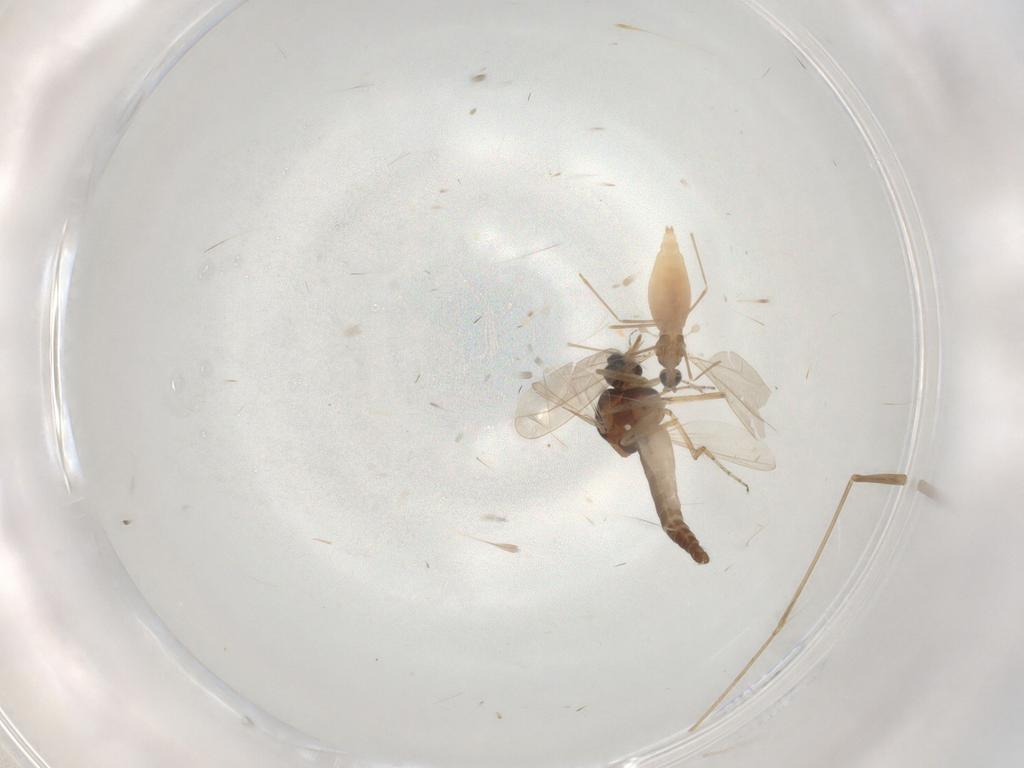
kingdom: Animalia
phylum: Arthropoda
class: Insecta
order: Diptera
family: Cecidomyiidae
